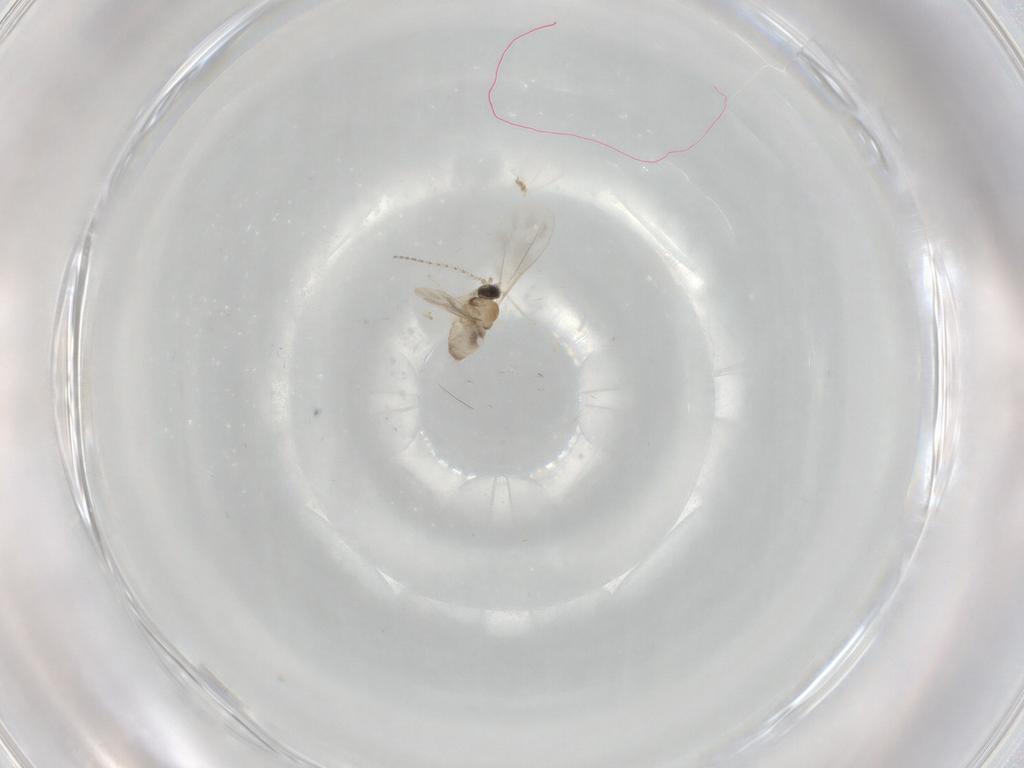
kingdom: Animalia
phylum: Arthropoda
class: Insecta
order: Diptera
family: Cecidomyiidae
